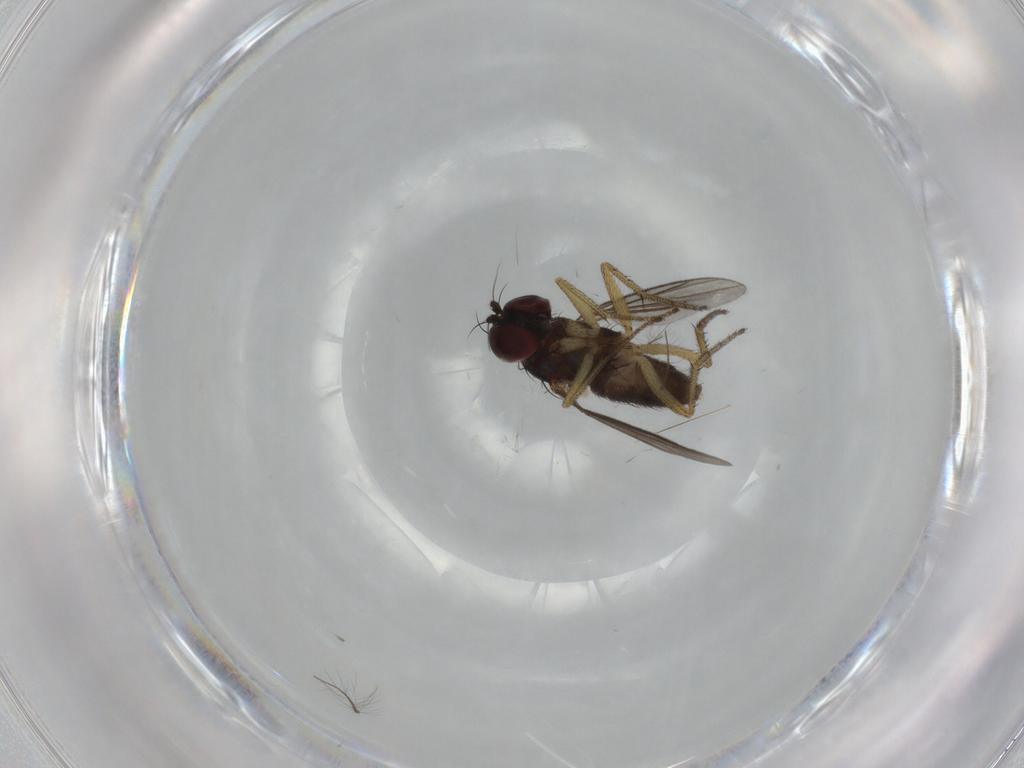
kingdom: Animalia
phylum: Arthropoda
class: Insecta
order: Diptera
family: Dolichopodidae
